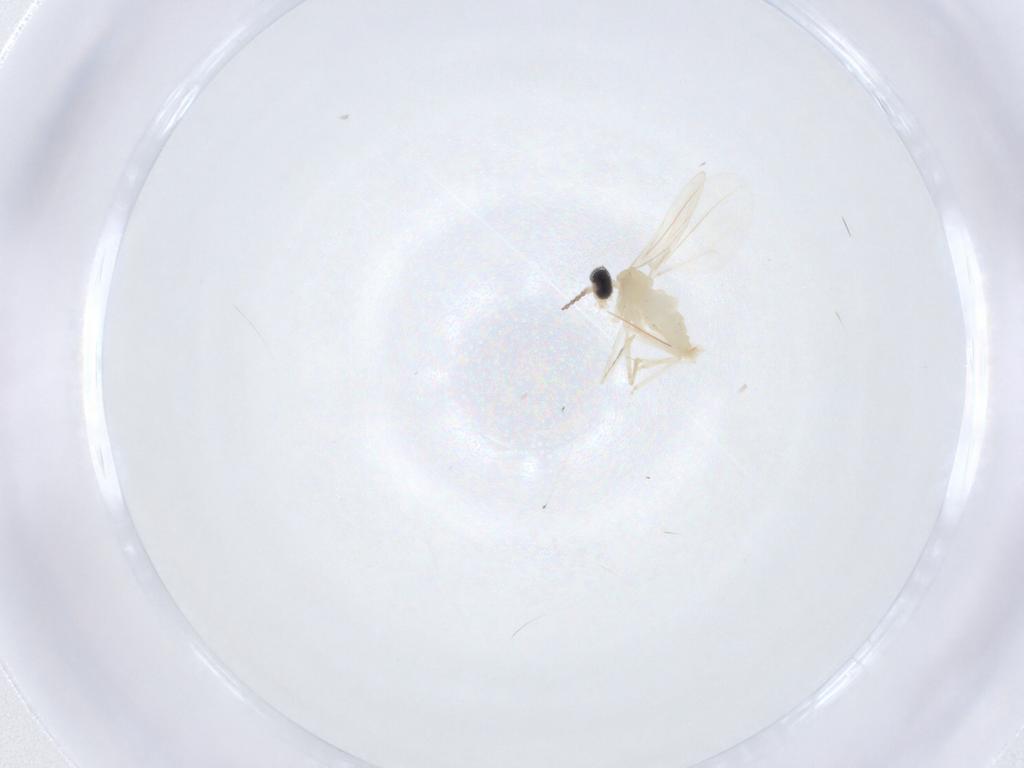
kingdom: Animalia
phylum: Arthropoda
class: Insecta
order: Diptera
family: Cecidomyiidae
